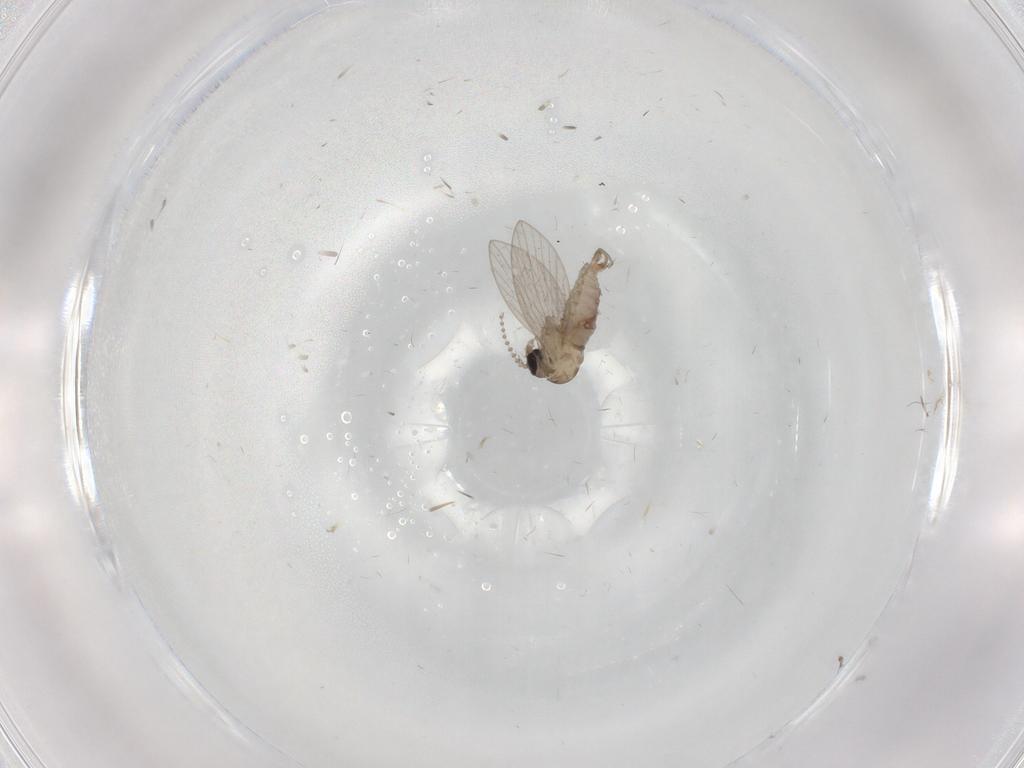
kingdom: Animalia
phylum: Arthropoda
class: Insecta
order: Diptera
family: Psychodidae
